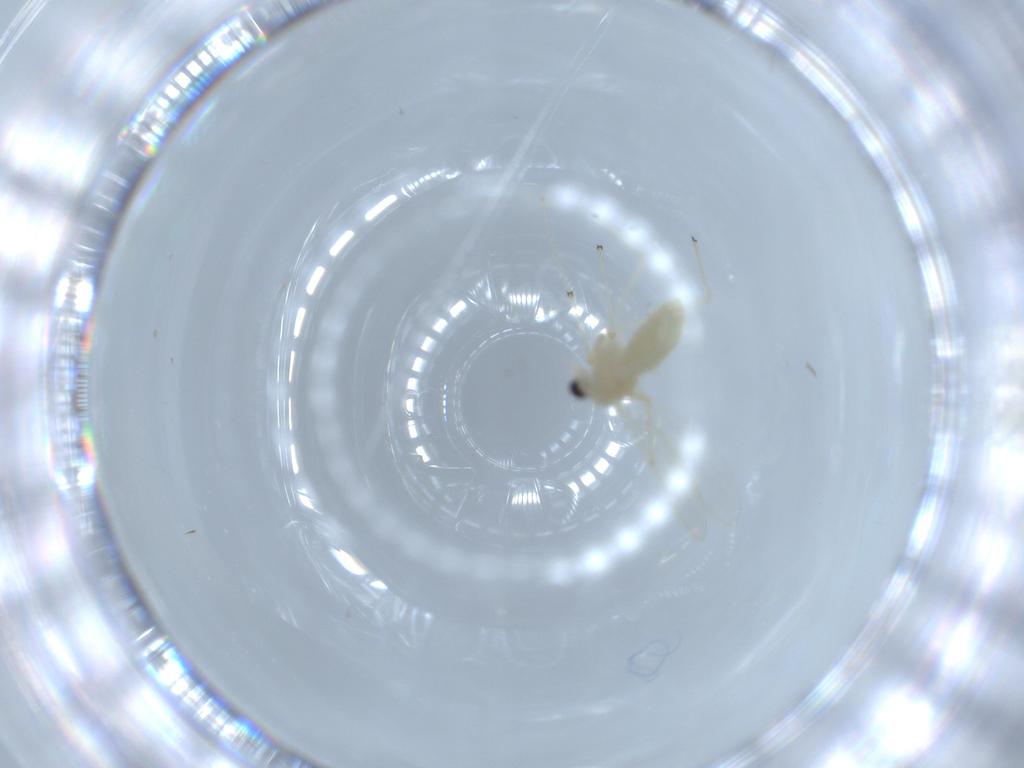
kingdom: Animalia
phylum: Arthropoda
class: Insecta
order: Diptera
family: Chironomidae
